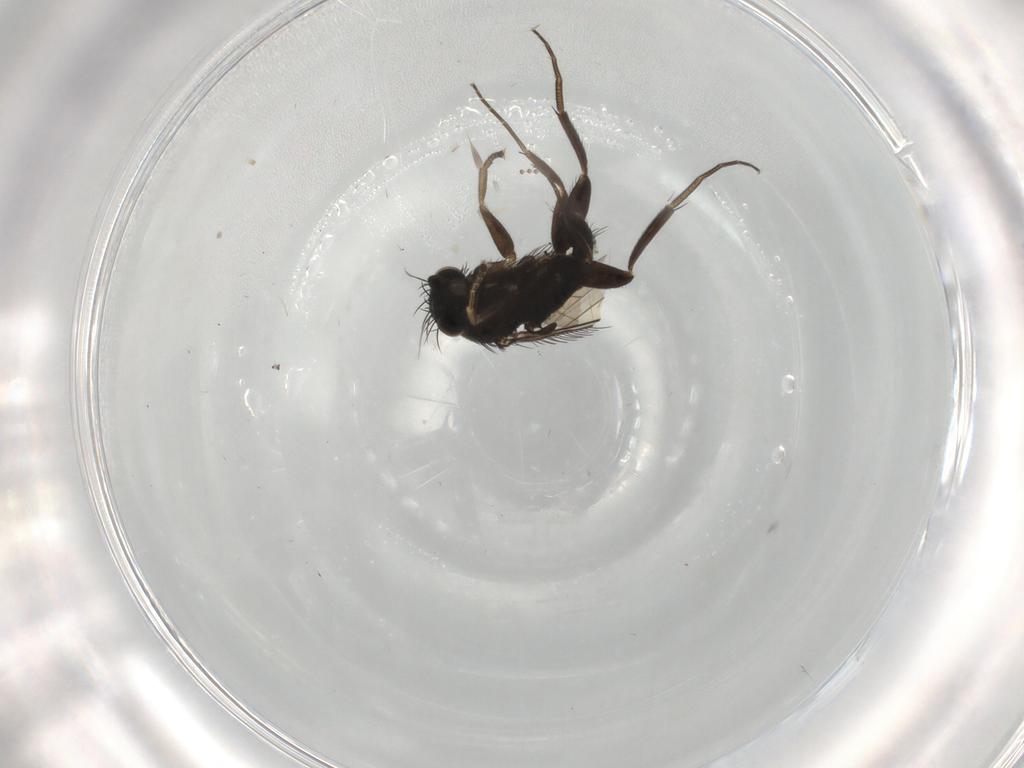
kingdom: Animalia
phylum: Arthropoda
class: Insecta
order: Diptera
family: Phoridae
